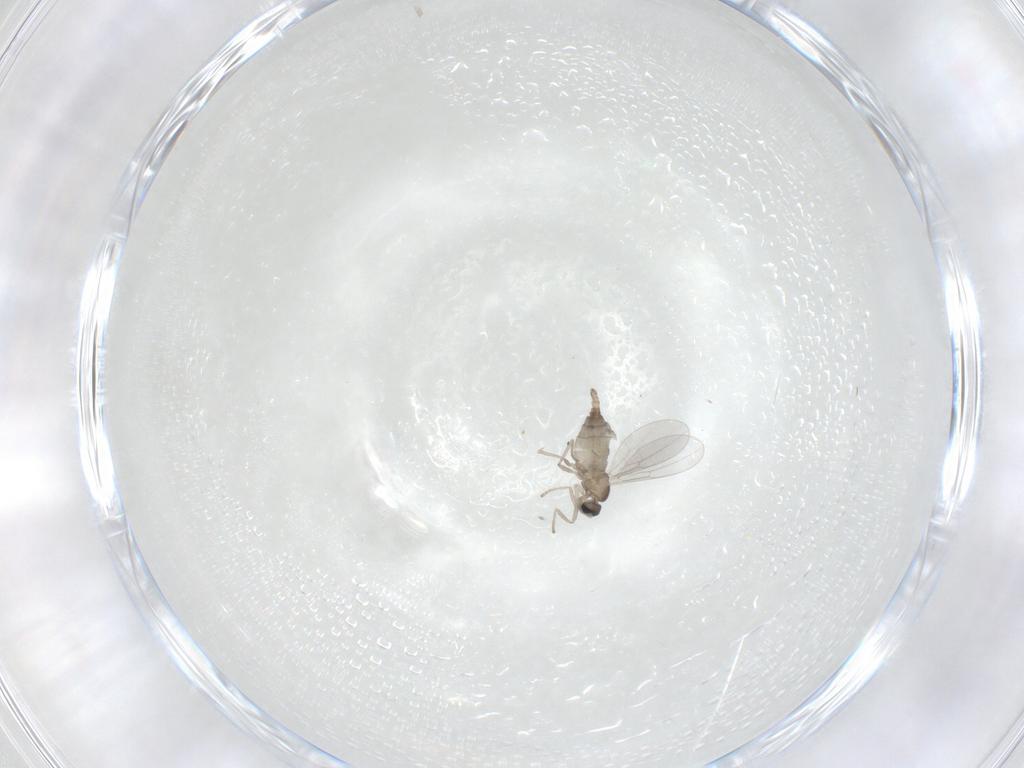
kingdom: Animalia
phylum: Arthropoda
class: Insecta
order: Diptera
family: Cecidomyiidae
